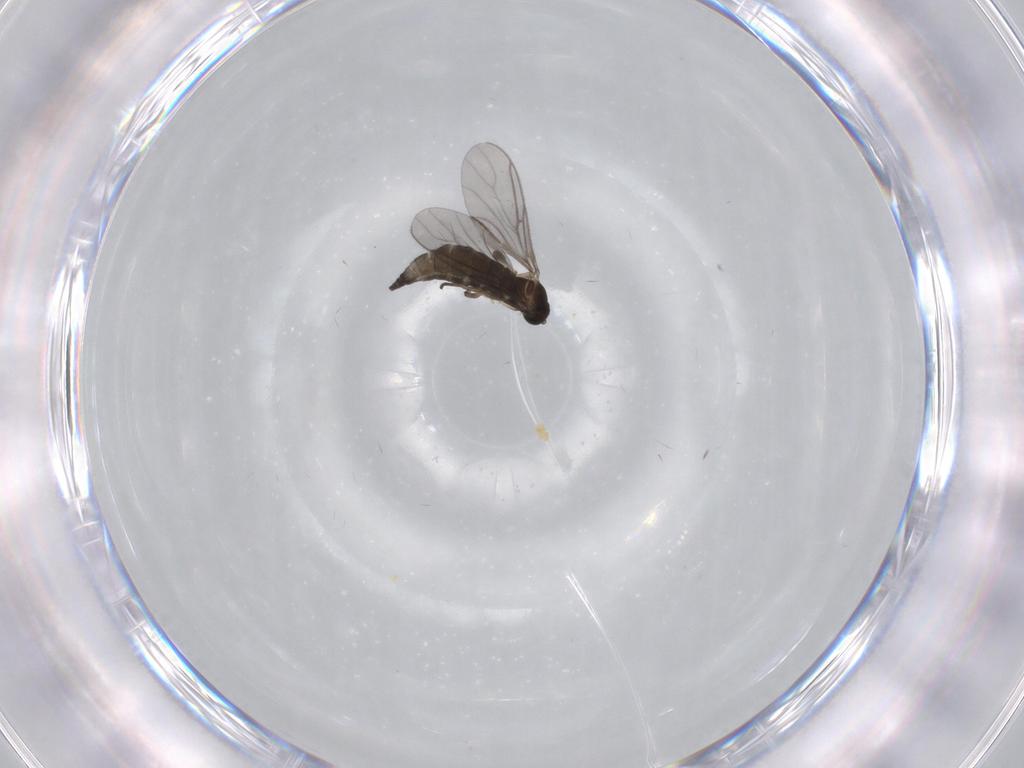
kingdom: Animalia
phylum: Arthropoda
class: Insecta
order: Diptera
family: Sciaridae
